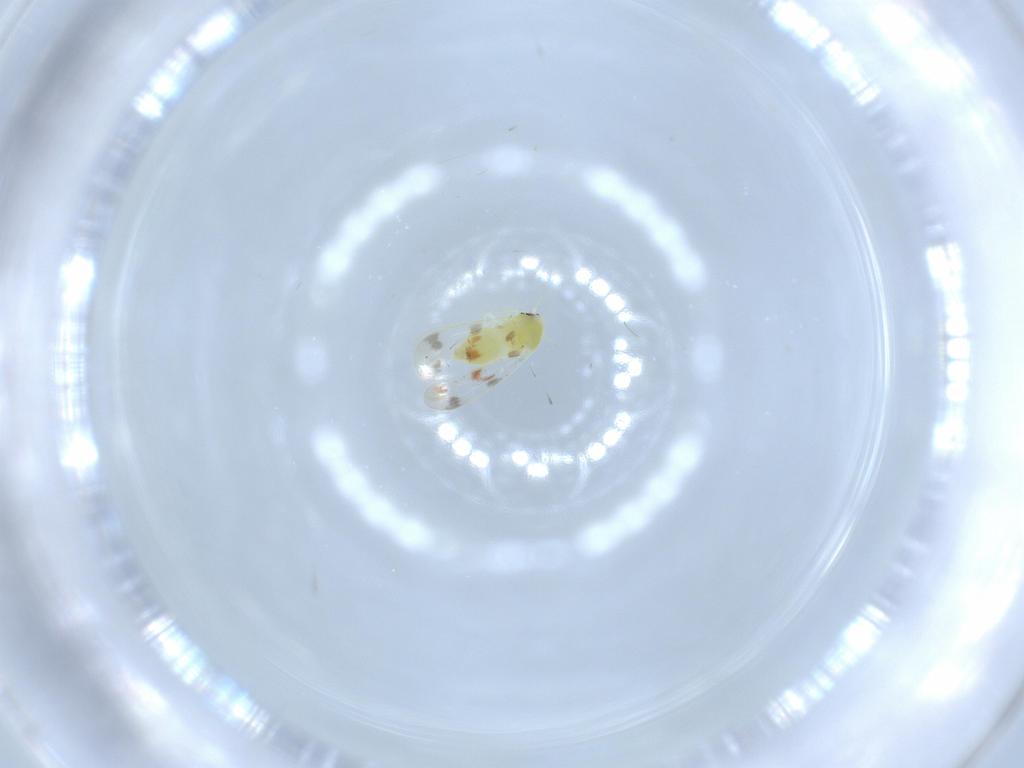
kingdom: Animalia
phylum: Arthropoda
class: Insecta
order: Hemiptera
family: Aleyrodidae
